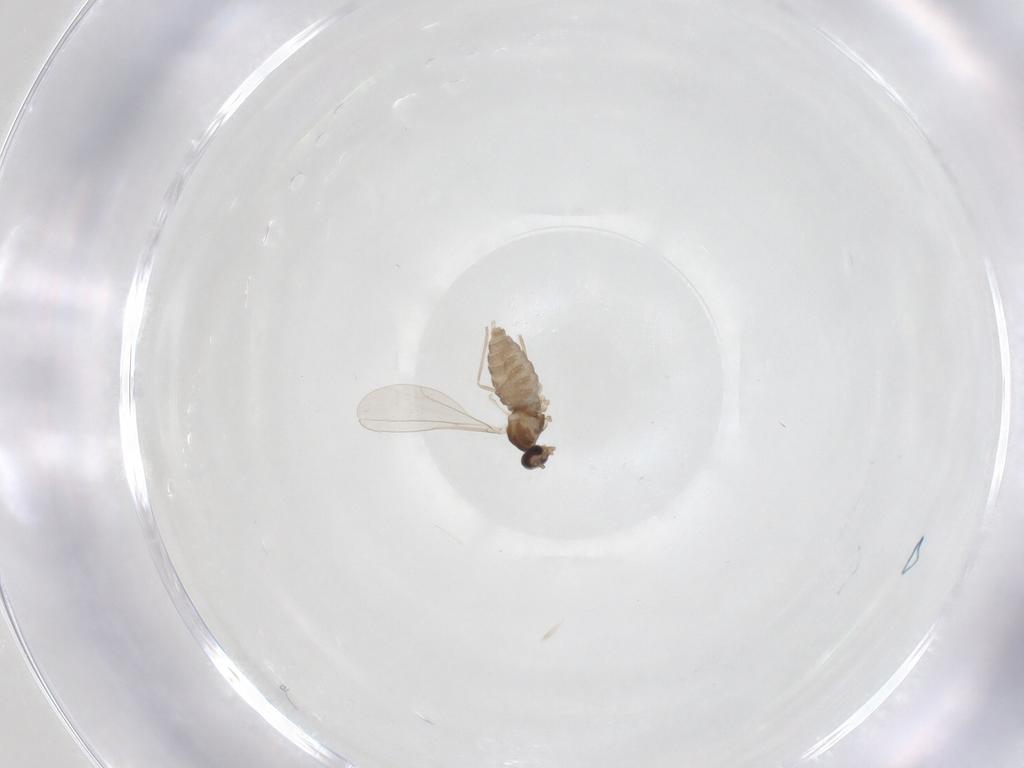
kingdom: Animalia
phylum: Arthropoda
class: Insecta
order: Diptera
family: Cecidomyiidae
